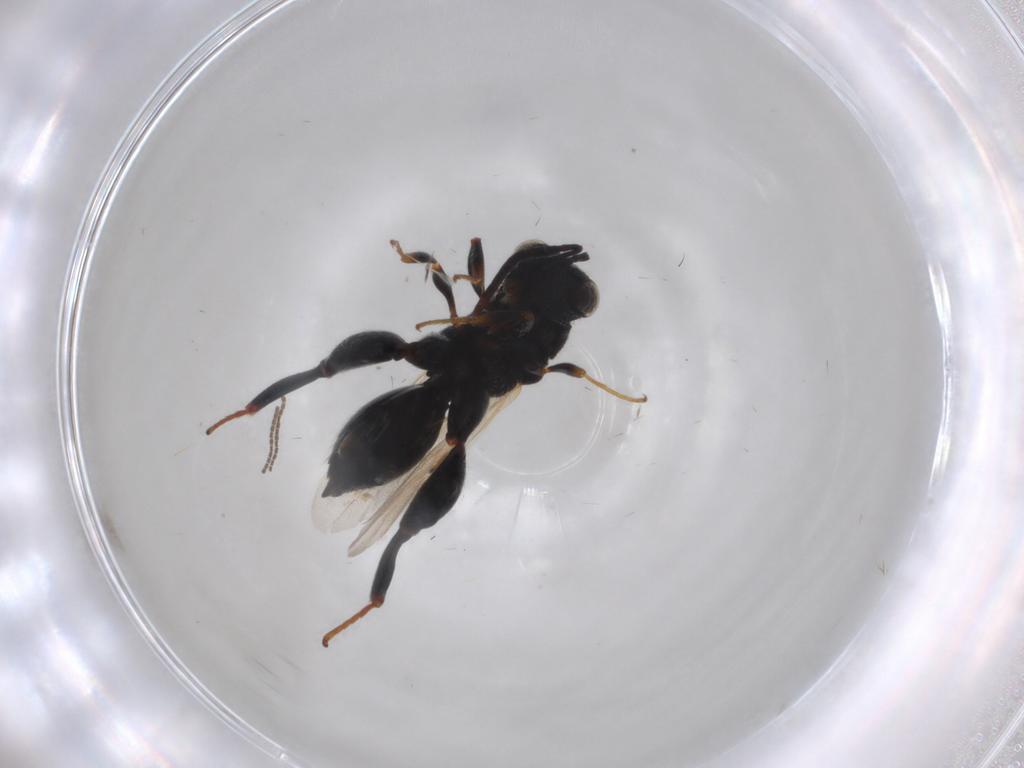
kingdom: Animalia
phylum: Arthropoda
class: Insecta
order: Hymenoptera
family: Chalcididae
